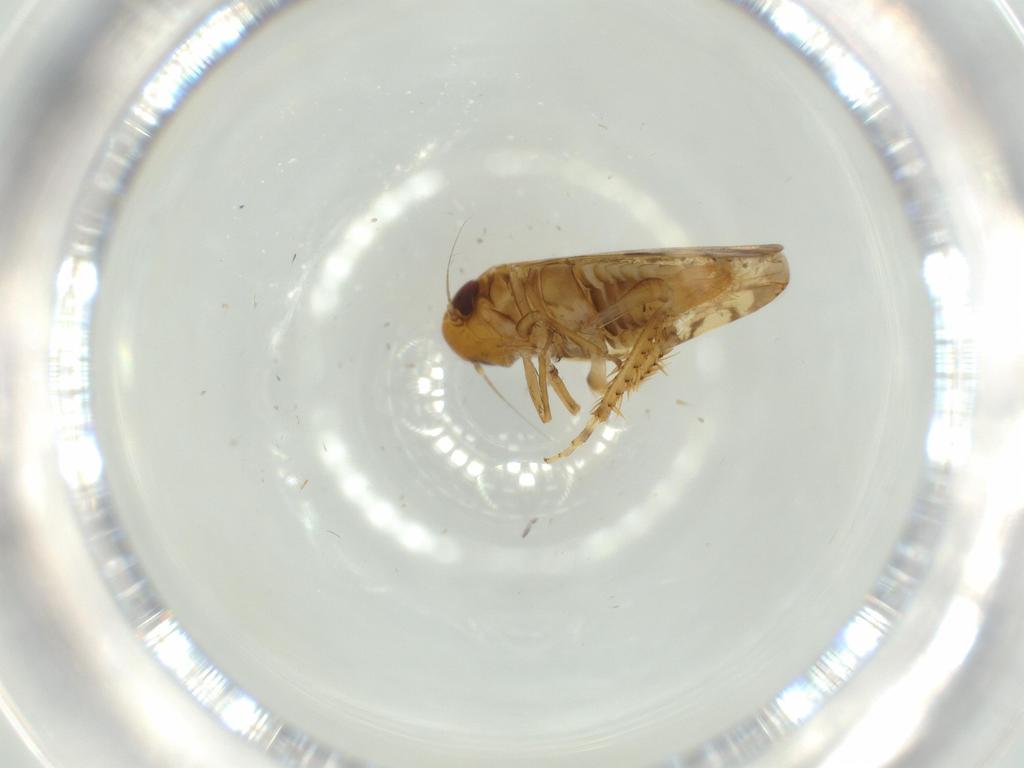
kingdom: Animalia
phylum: Arthropoda
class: Insecta
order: Hemiptera
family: Cicadellidae
